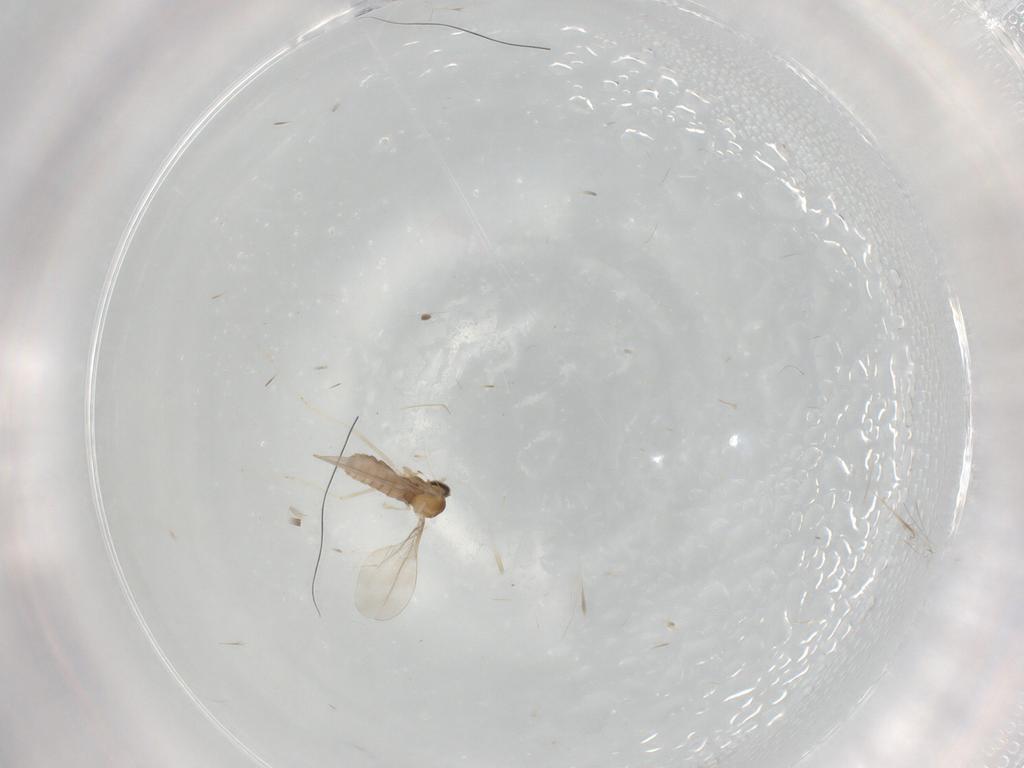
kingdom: Animalia
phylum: Arthropoda
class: Insecta
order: Diptera
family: Cecidomyiidae
